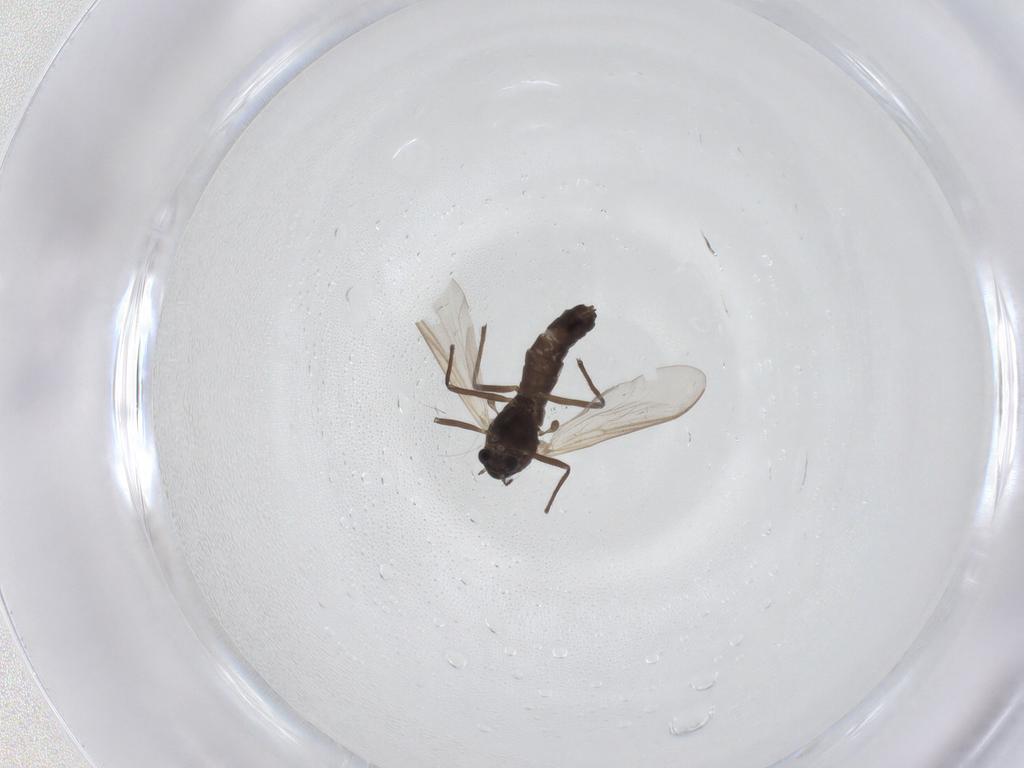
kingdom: Animalia
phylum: Arthropoda
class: Insecta
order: Diptera
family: Chironomidae
